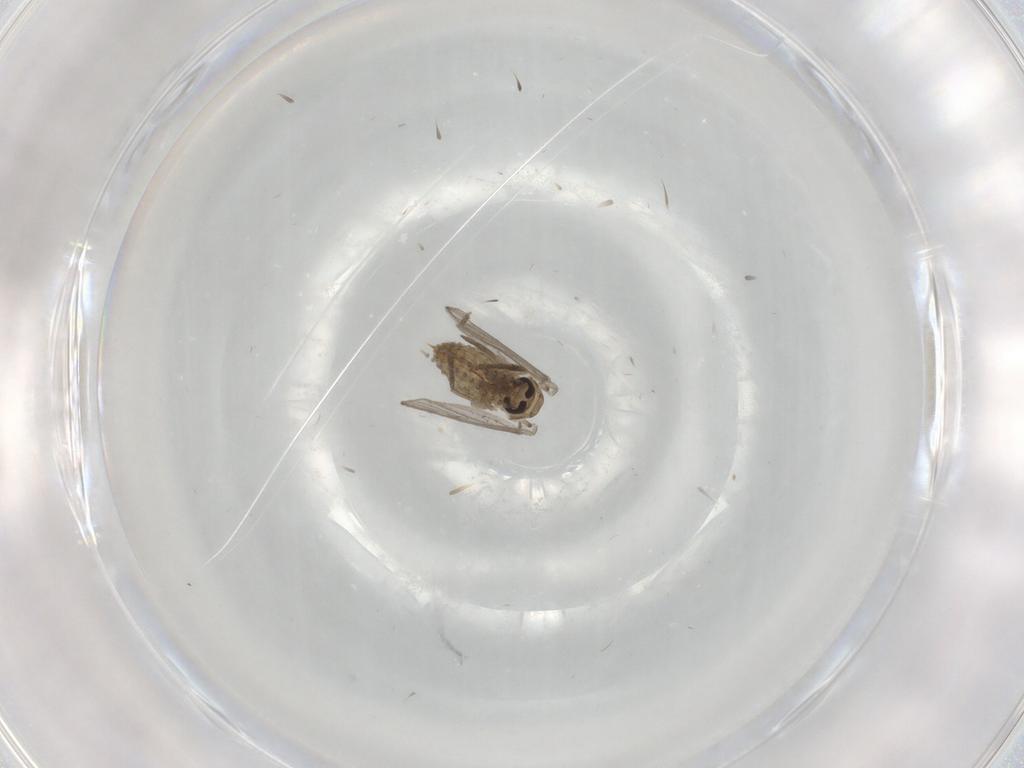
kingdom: Animalia
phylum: Arthropoda
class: Insecta
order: Diptera
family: Psychodidae
